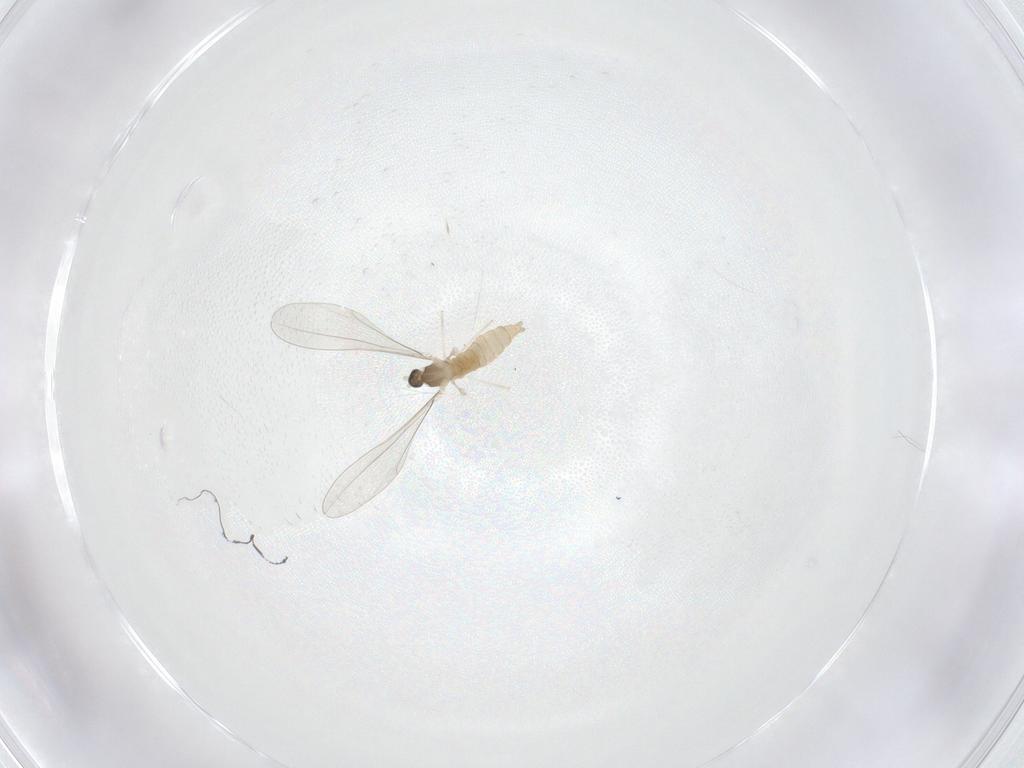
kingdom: Animalia
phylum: Arthropoda
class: Insecta
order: Diptera
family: Cecidomyiidae
